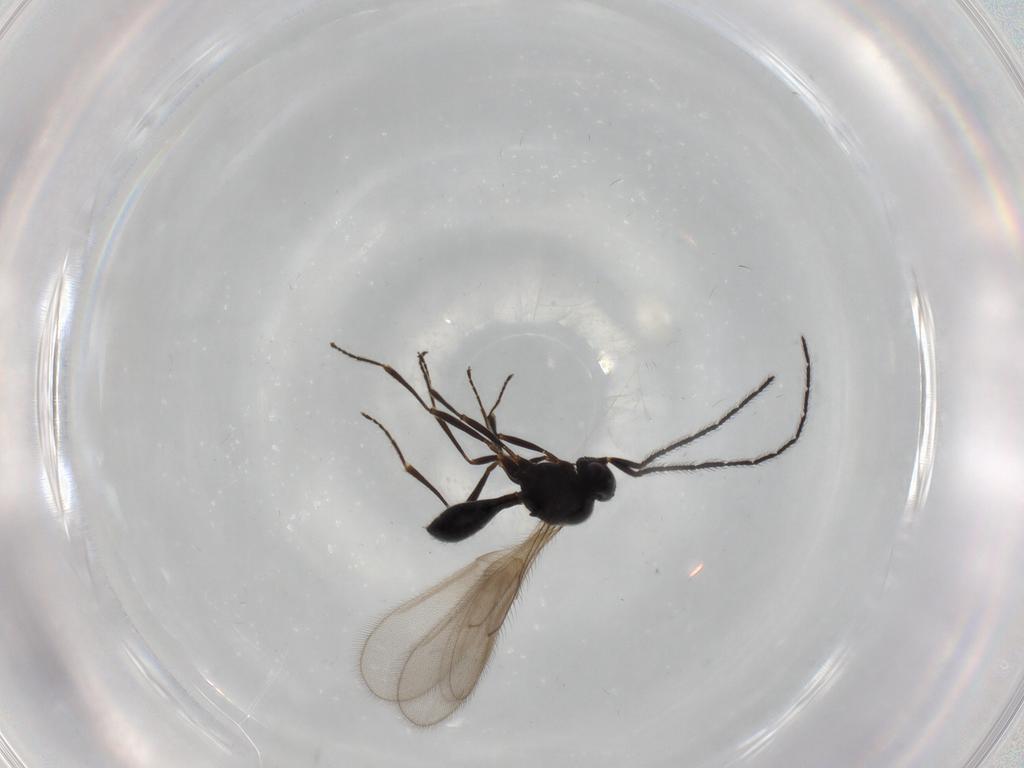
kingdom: Animalia
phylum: Arthropoda
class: Insecta
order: Hymenoptera
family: Scelionidae
